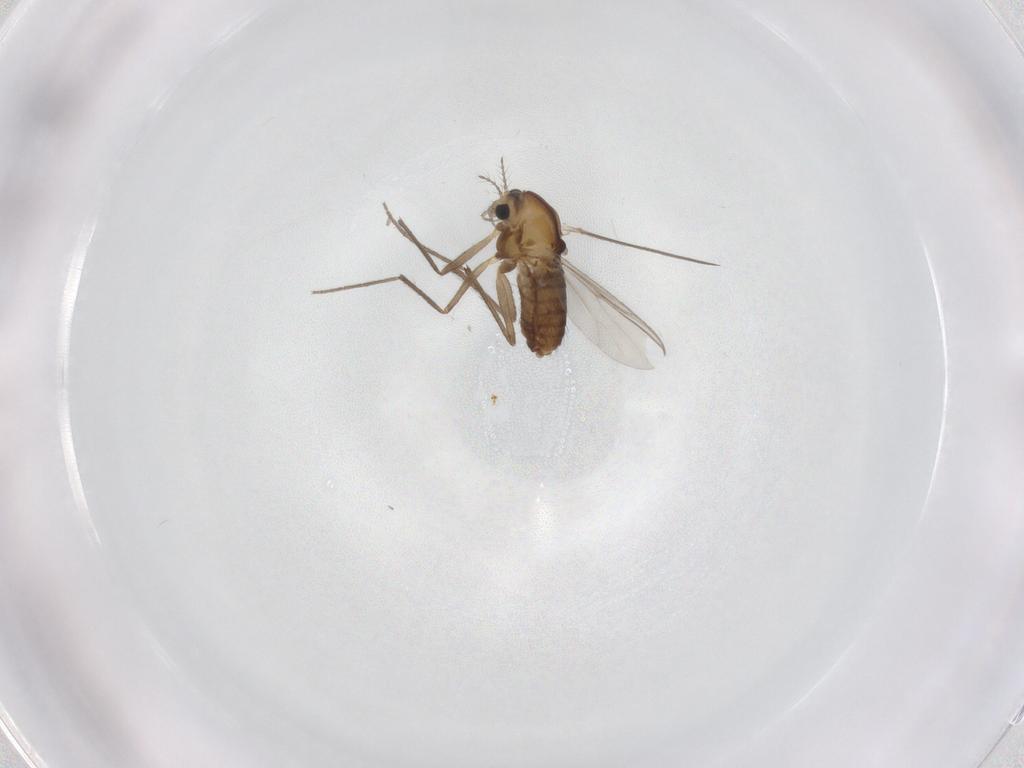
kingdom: Animalia
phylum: Arthropoda
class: Insecta
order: Diptera
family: Chironomidae
